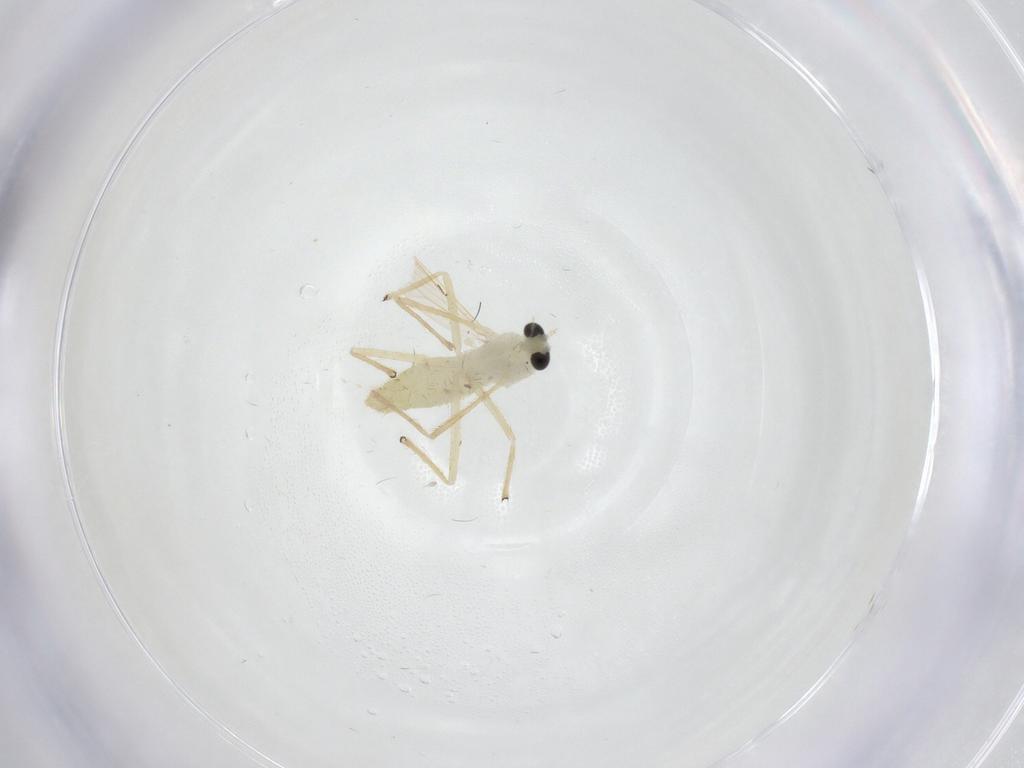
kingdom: Animalia
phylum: Arthropoda
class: Insecta
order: Diptera
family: Chironomidae
